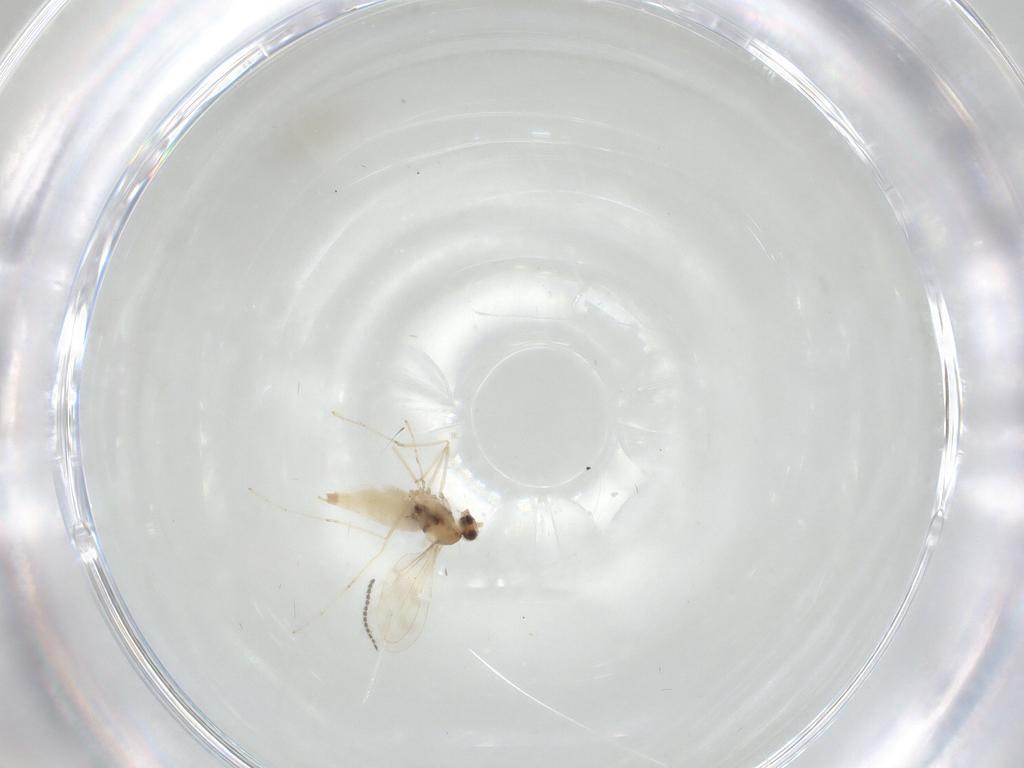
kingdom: Animalia
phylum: Arthropoda
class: Insecta
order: Diptera
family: Cecidomyiidae
